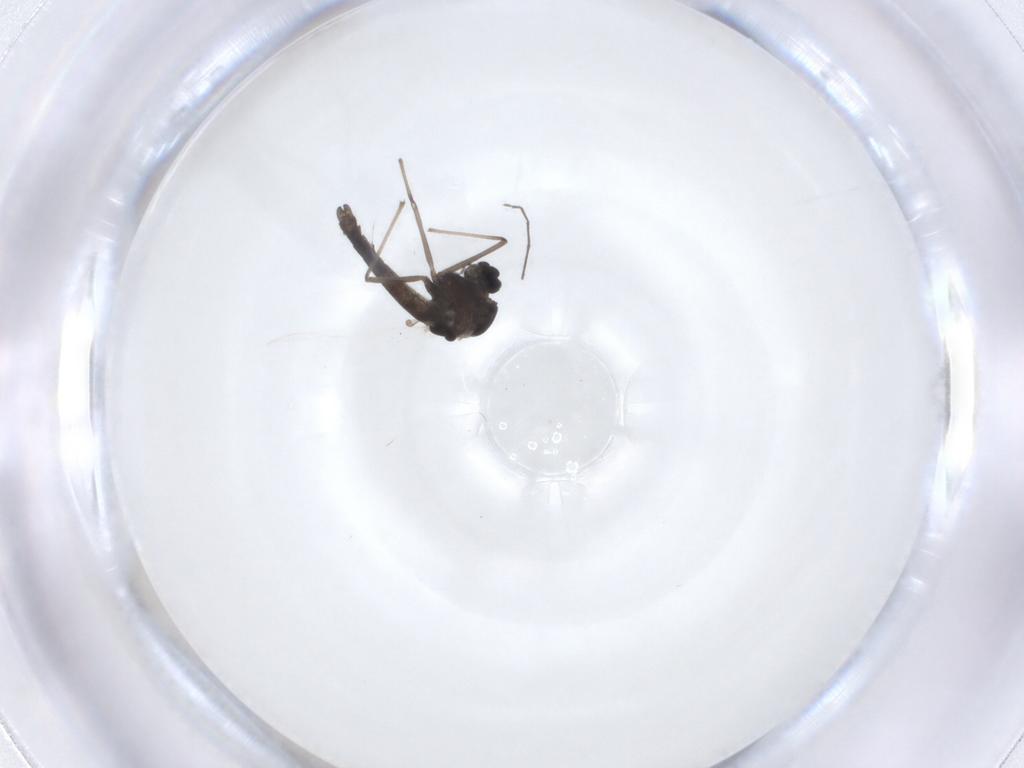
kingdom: Animalia
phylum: Arthropoda
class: Insecta
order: Diptera
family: Chironomidae
